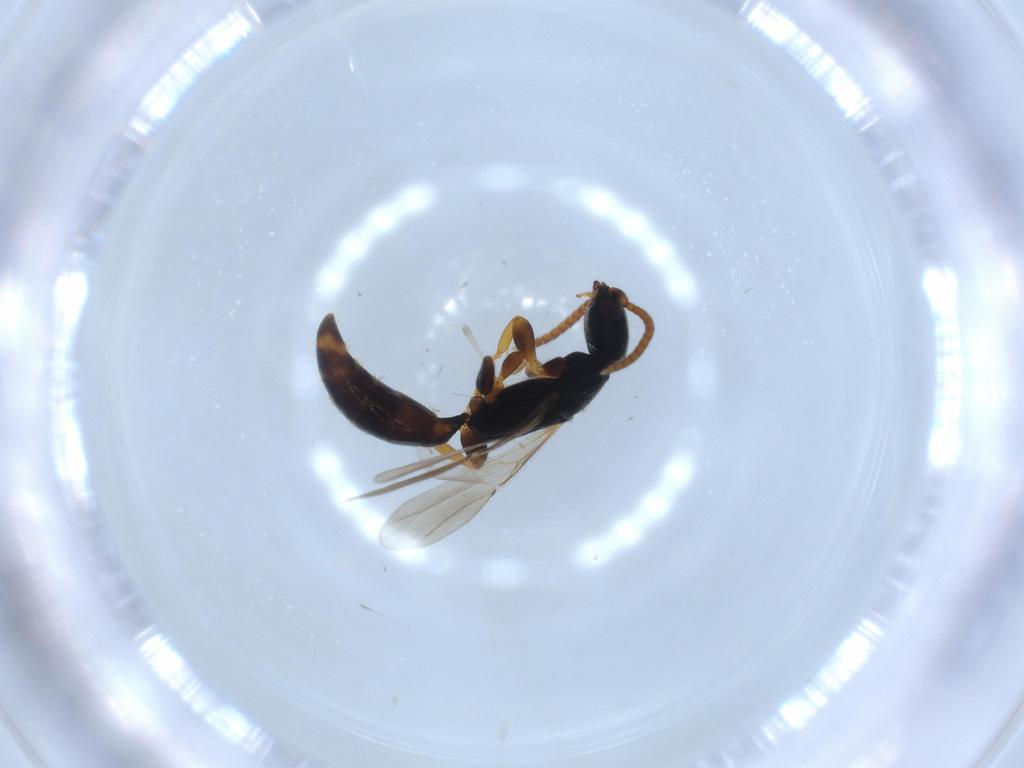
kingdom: Animalia
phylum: Arthropoda
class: Insecta
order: Hymenoptera
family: Bethylidae
